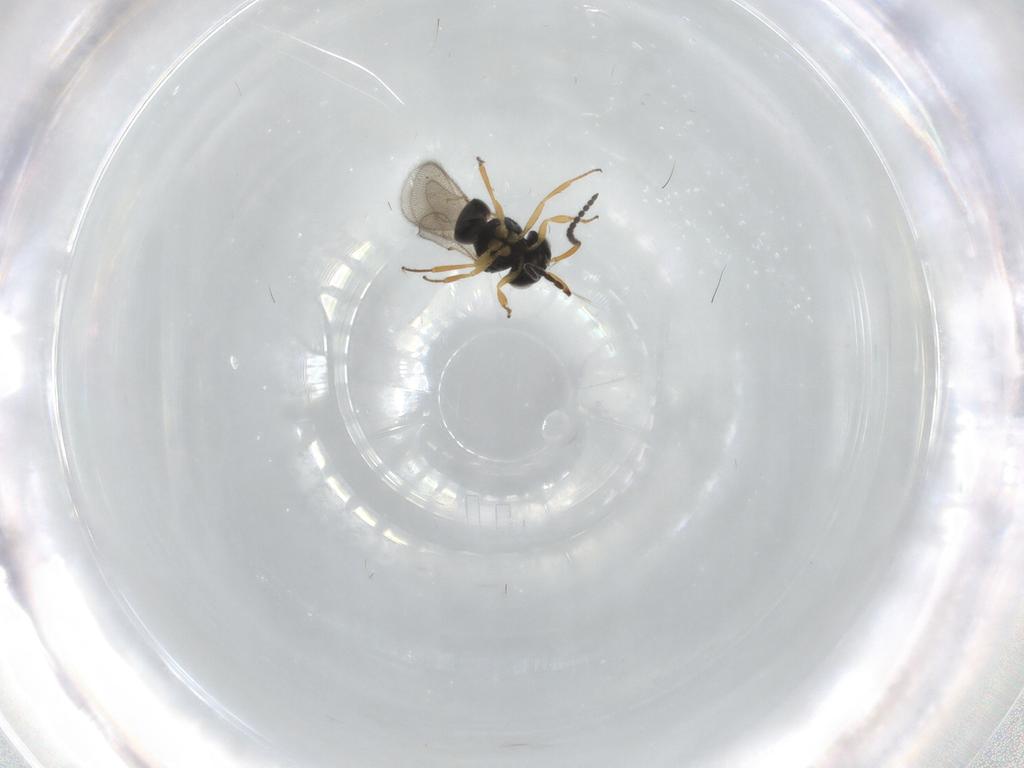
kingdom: Animalia
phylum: Arthropoda
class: Insecta
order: Hymenoptera
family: Scelionidae
